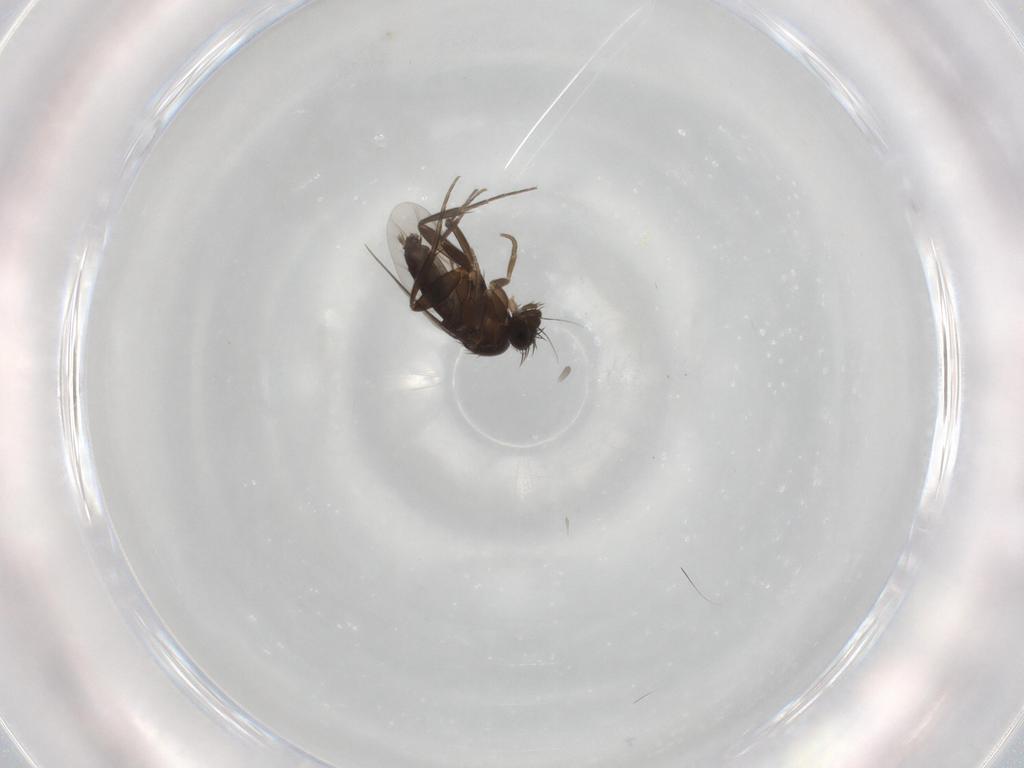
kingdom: Animalia
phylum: Arthropoda
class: Insecta
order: Diptera
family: Phoridae
